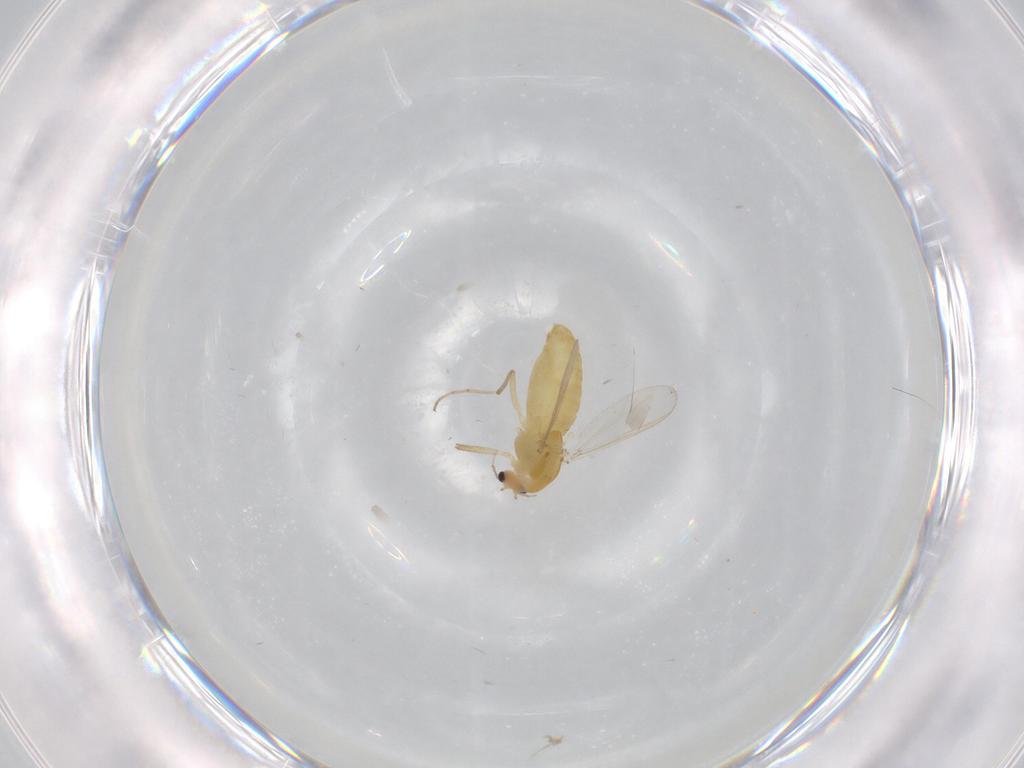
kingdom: Animalia
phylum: Arthropoda
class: Insecta
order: Diptera
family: Chironomidae
